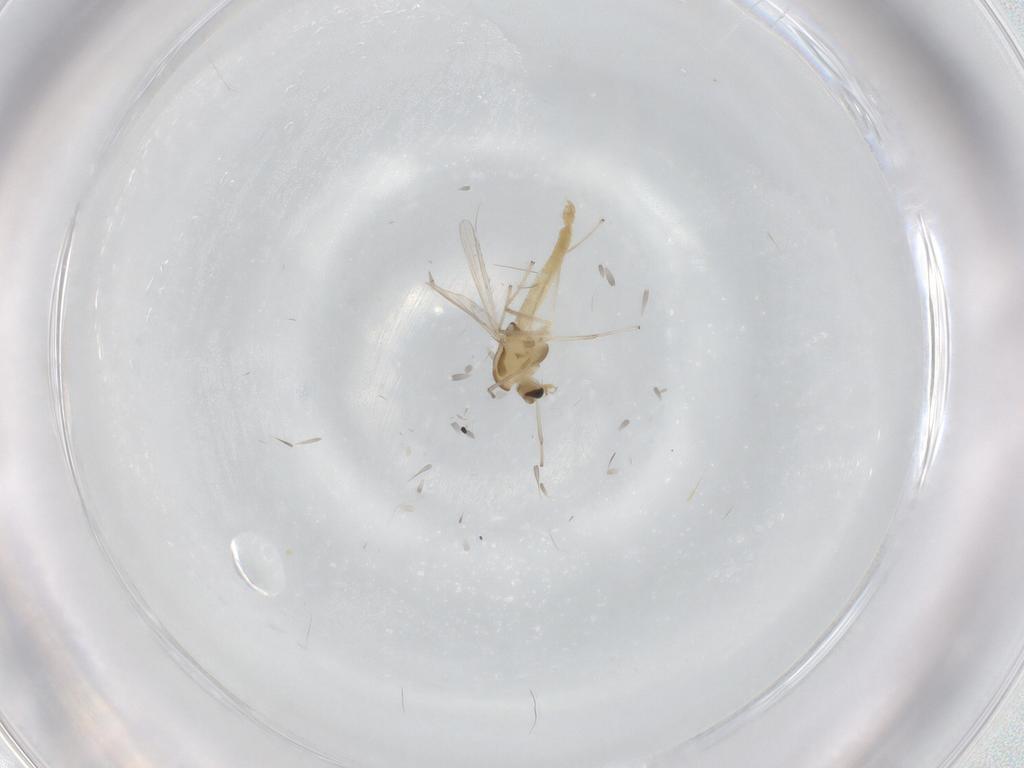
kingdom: Animalia
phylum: Arthropoda
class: Insecta
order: Diptera
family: Chironomidae
